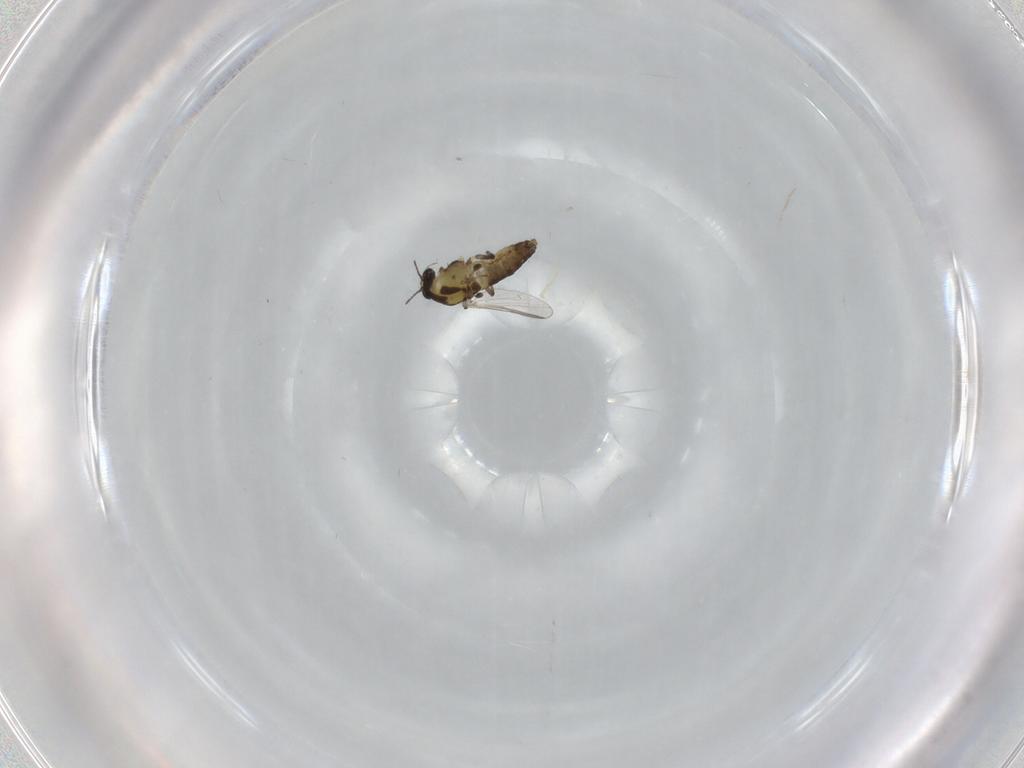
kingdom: Animalia
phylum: Arthropoda
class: Insecta
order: Diptera
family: Chironomidae
